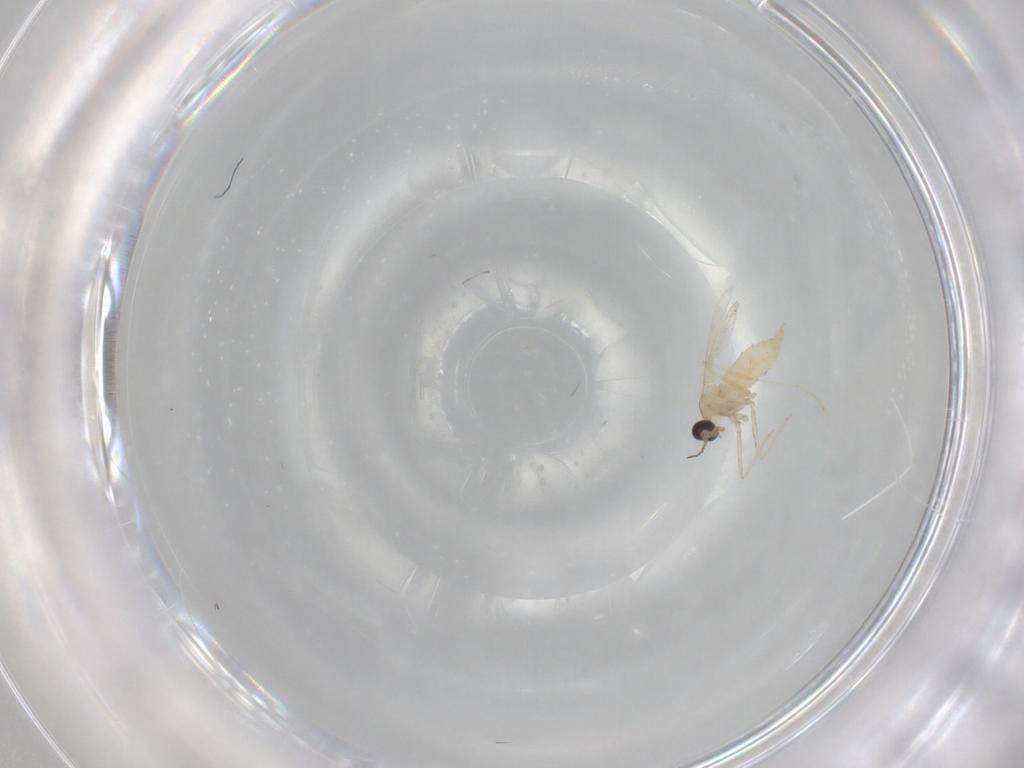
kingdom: Animalia
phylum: Arthropoda
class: Insecta
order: Diptera
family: Cecidomyiidae
